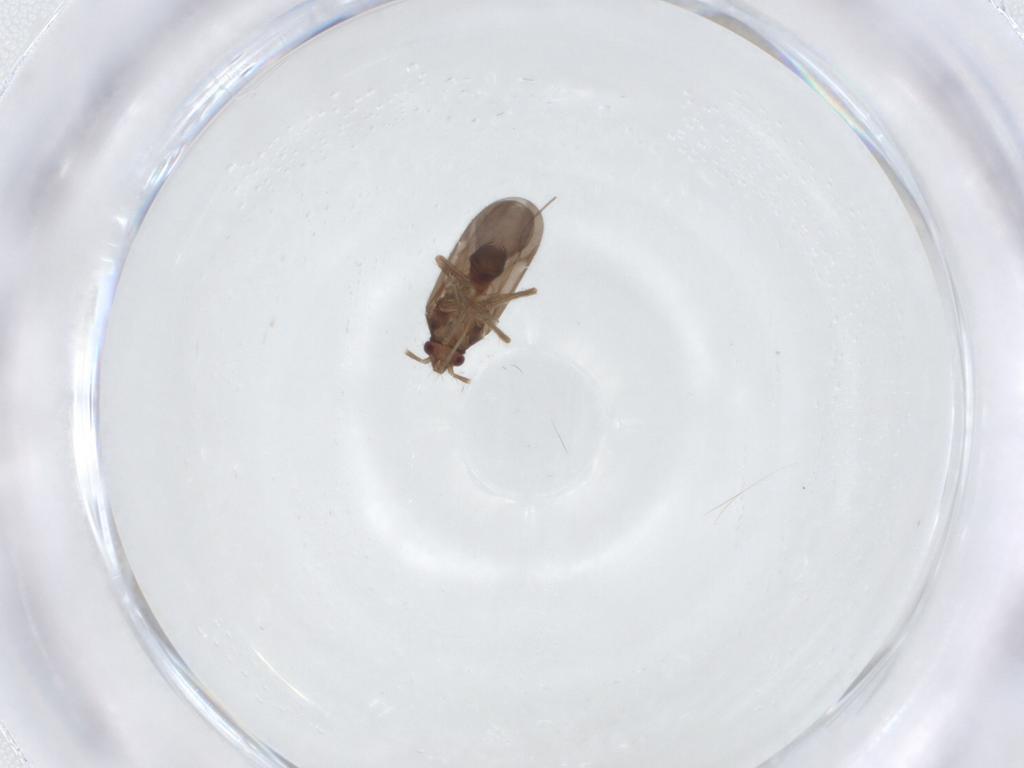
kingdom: Animalia
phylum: Arthropoda
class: Insecta
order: Hemiptera
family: Ceratocombidae
